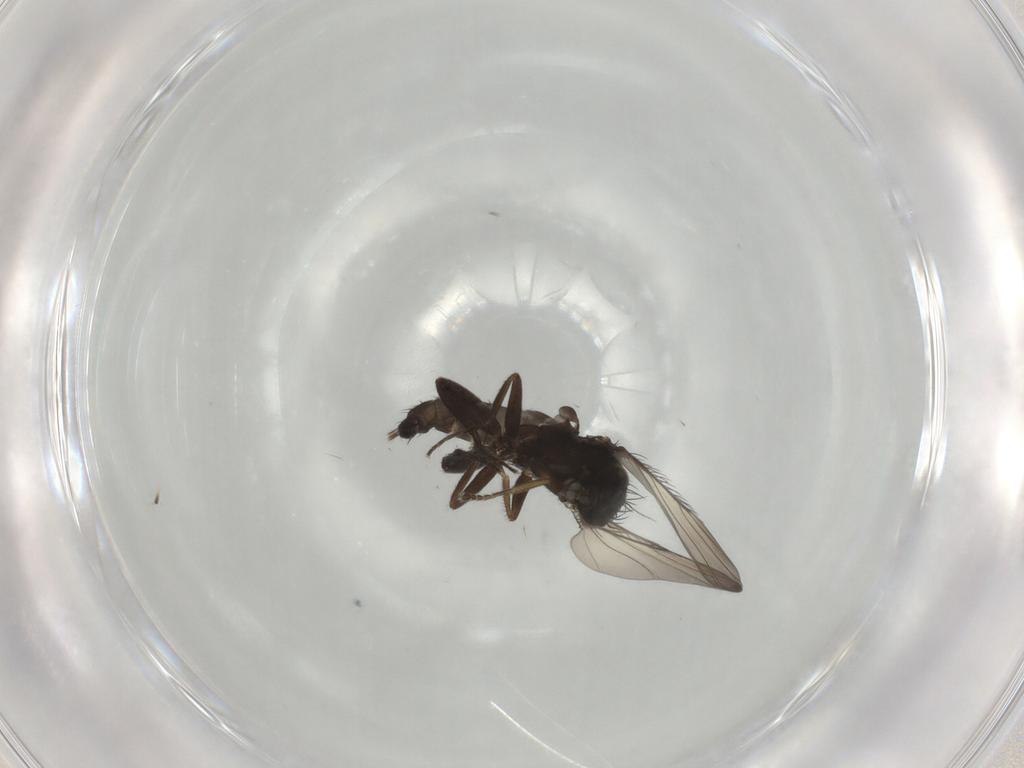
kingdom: Animalia
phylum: Arthropoda
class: Insecta
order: Diptera
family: Phoridae
